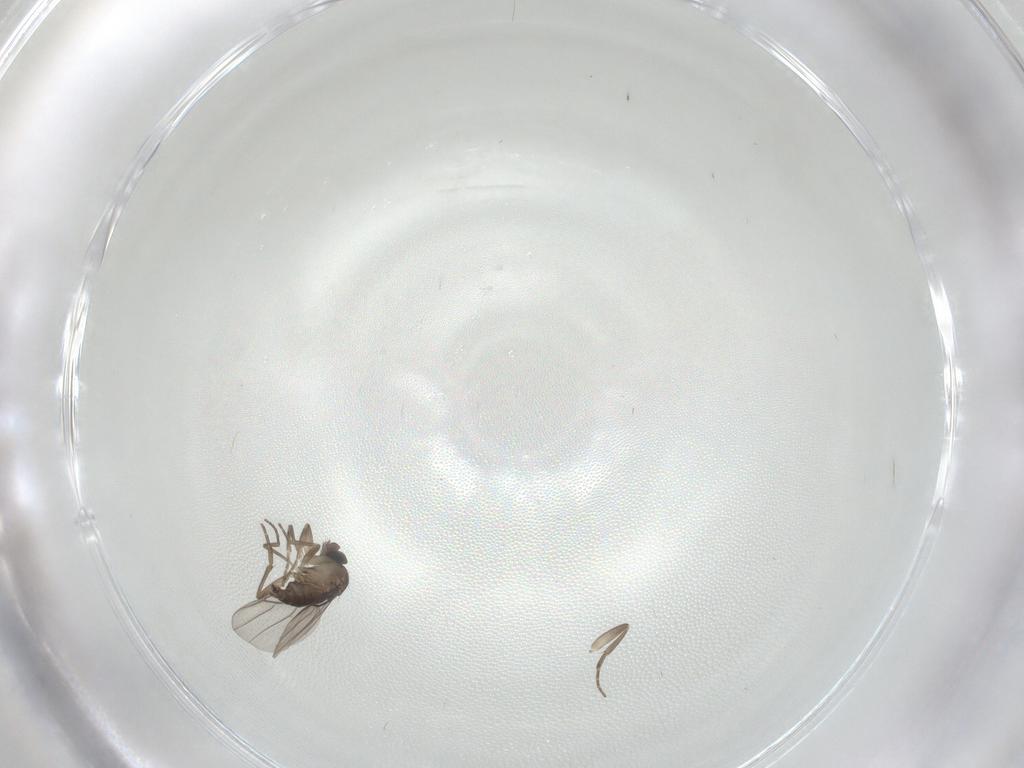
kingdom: Animalia
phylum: Arthropoda
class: Insecta
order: Diptera
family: Phoridae
